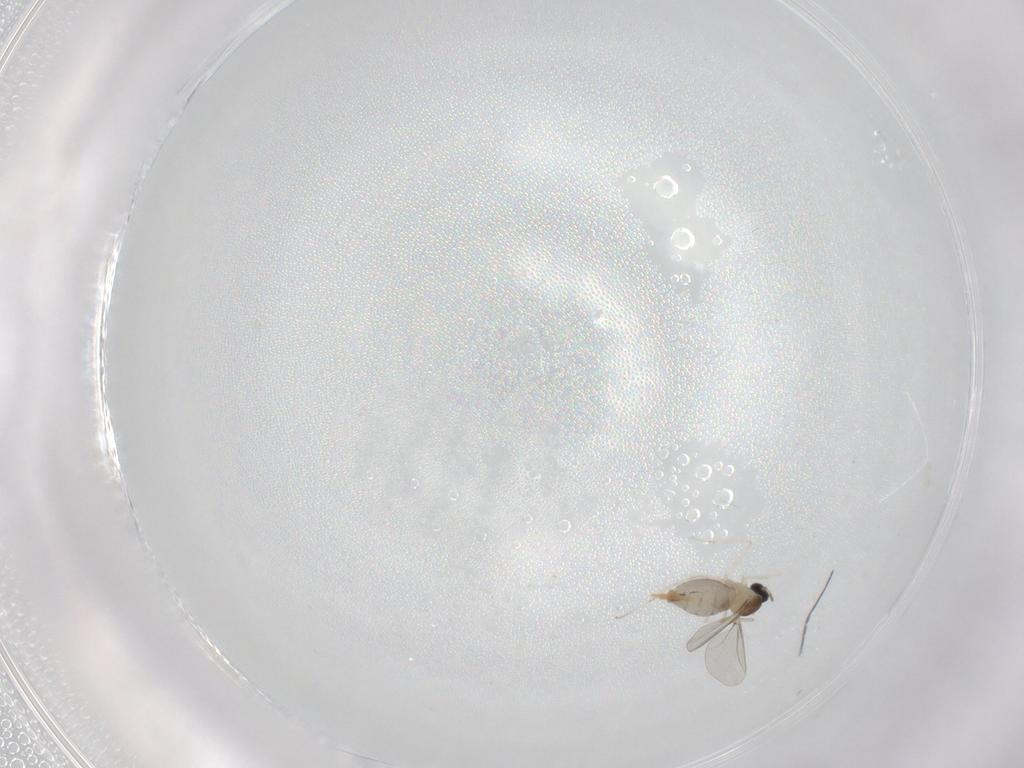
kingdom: Animalia
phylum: Arthropoda
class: Insecta
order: Diptera
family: Cecidomyiidae
